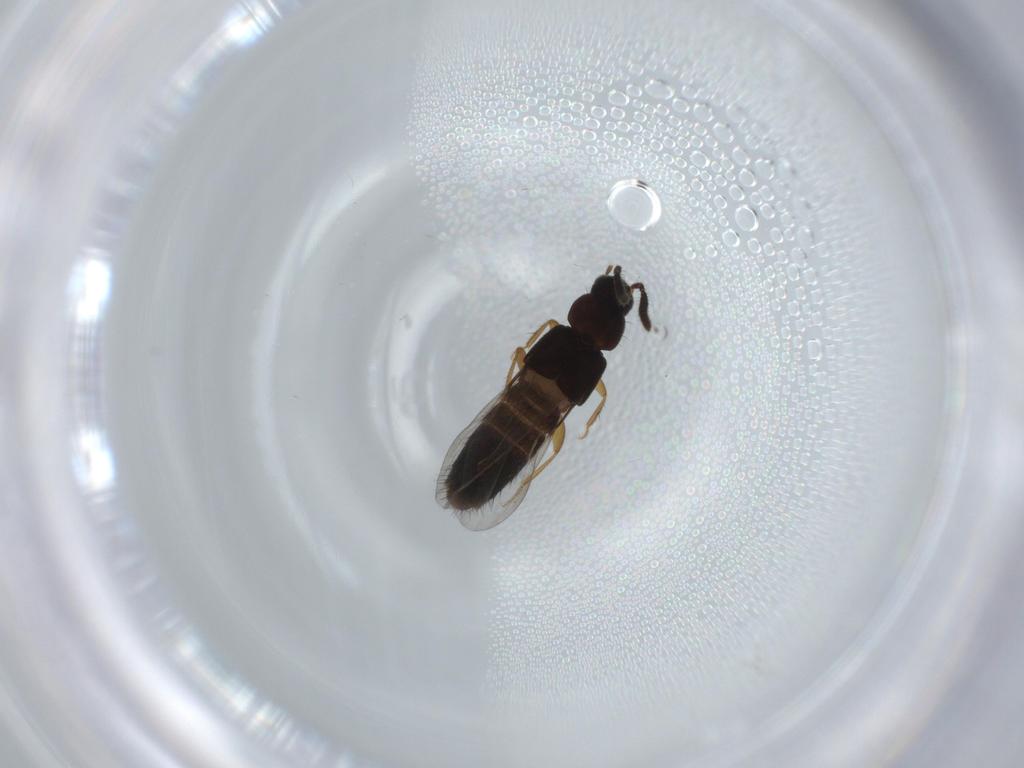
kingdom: Animalia
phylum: Arthropoda
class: Insecta
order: Coleoptera
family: Staphylinidae
